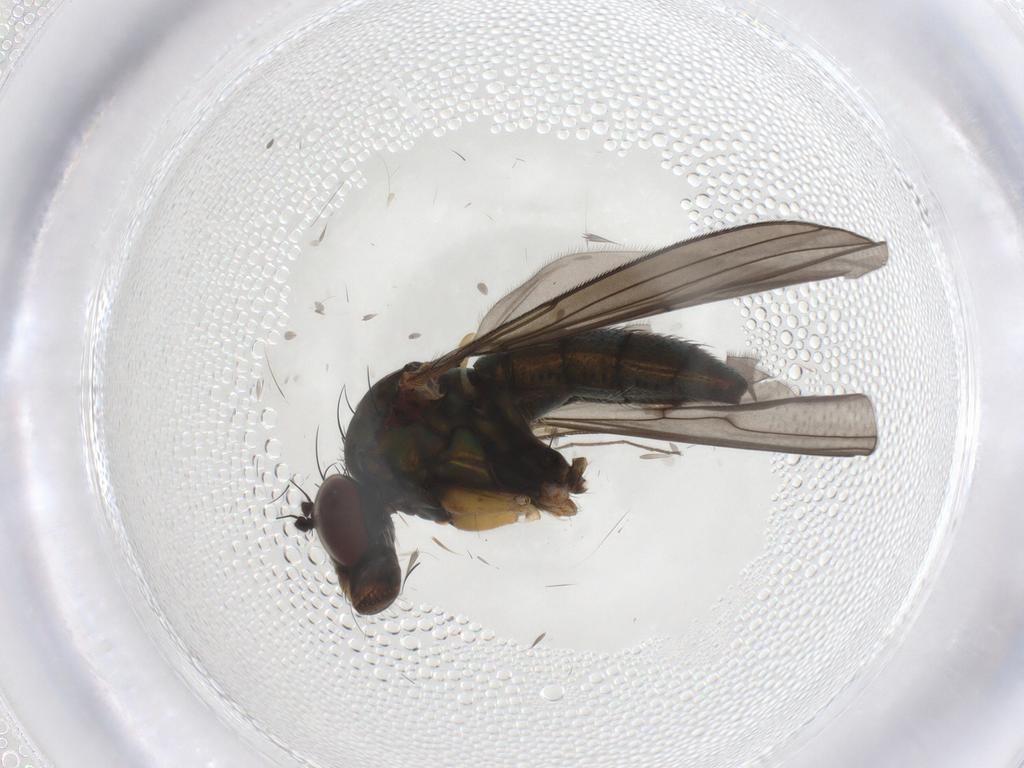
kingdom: Animalia
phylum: Arthropoda
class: Insecta
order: Diptera
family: Dolichopodidae
